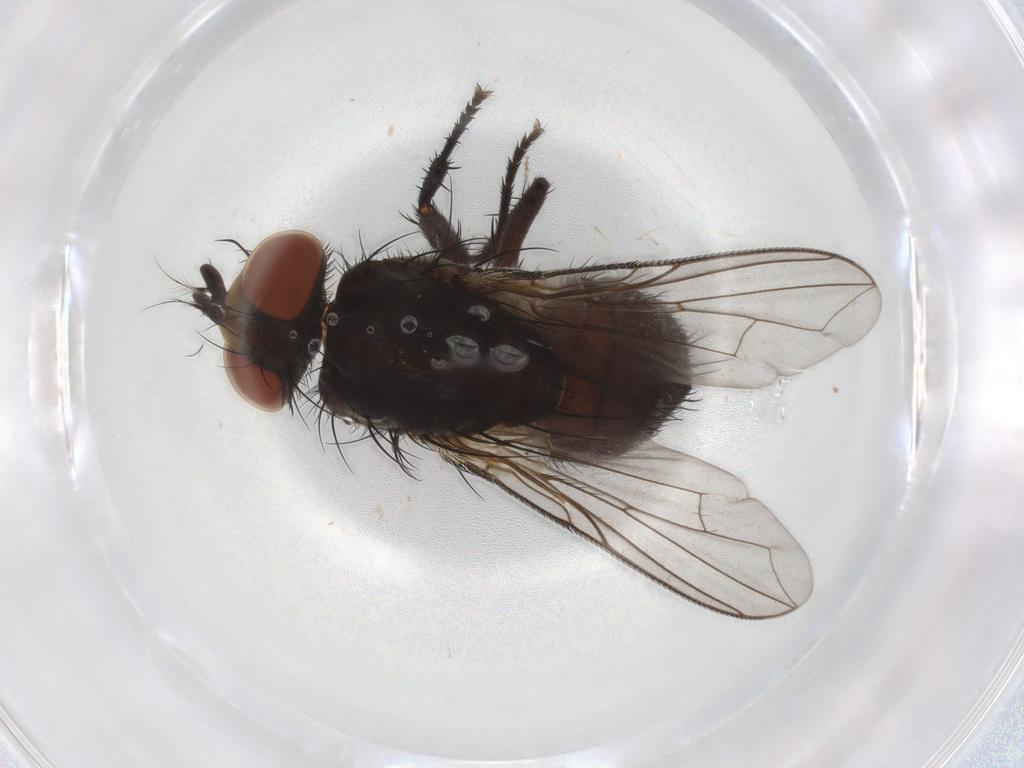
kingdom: Animalia
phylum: Arthropoda
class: Insecta
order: Diptera
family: Sarcophagidae
